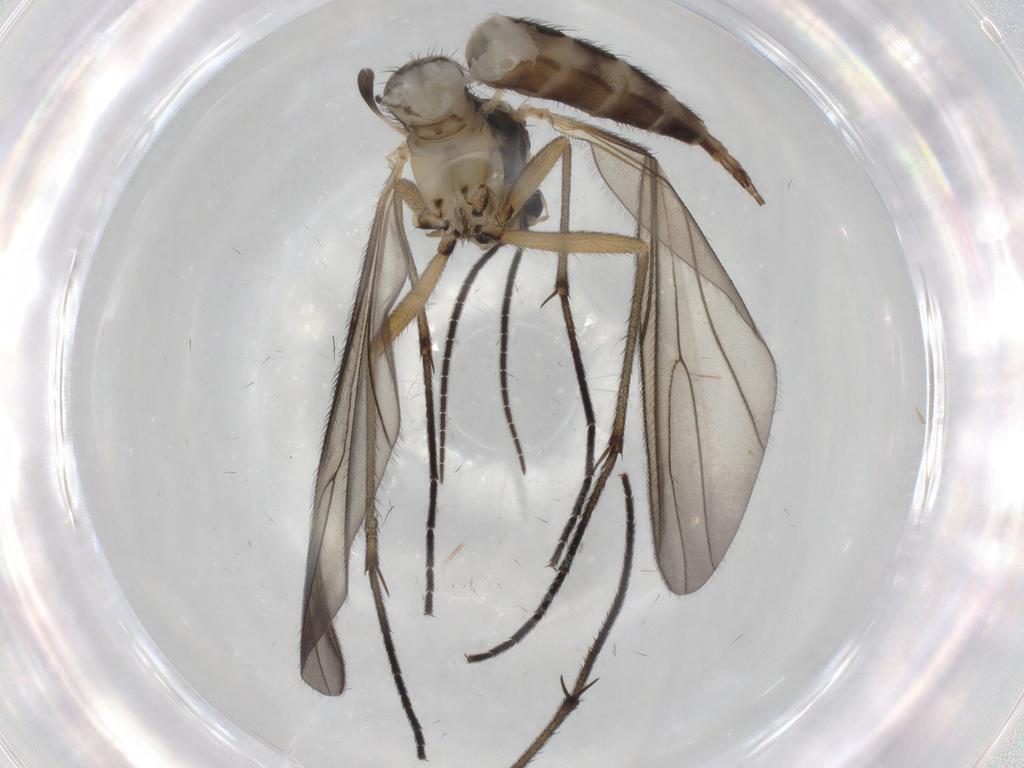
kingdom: Animalia
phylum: Arthropoda
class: Insecta
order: Diptera
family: Sciaridae
